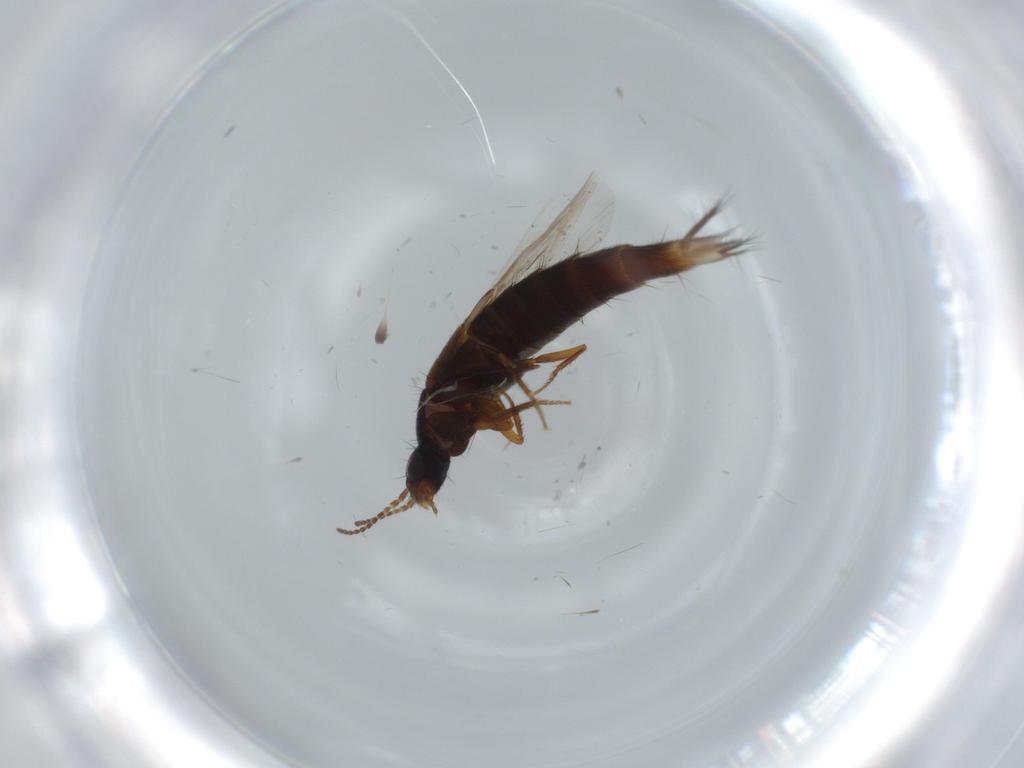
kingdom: Animalia
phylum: Arthropoda
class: Insecta
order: Coleoptera
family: Staphylinidae
